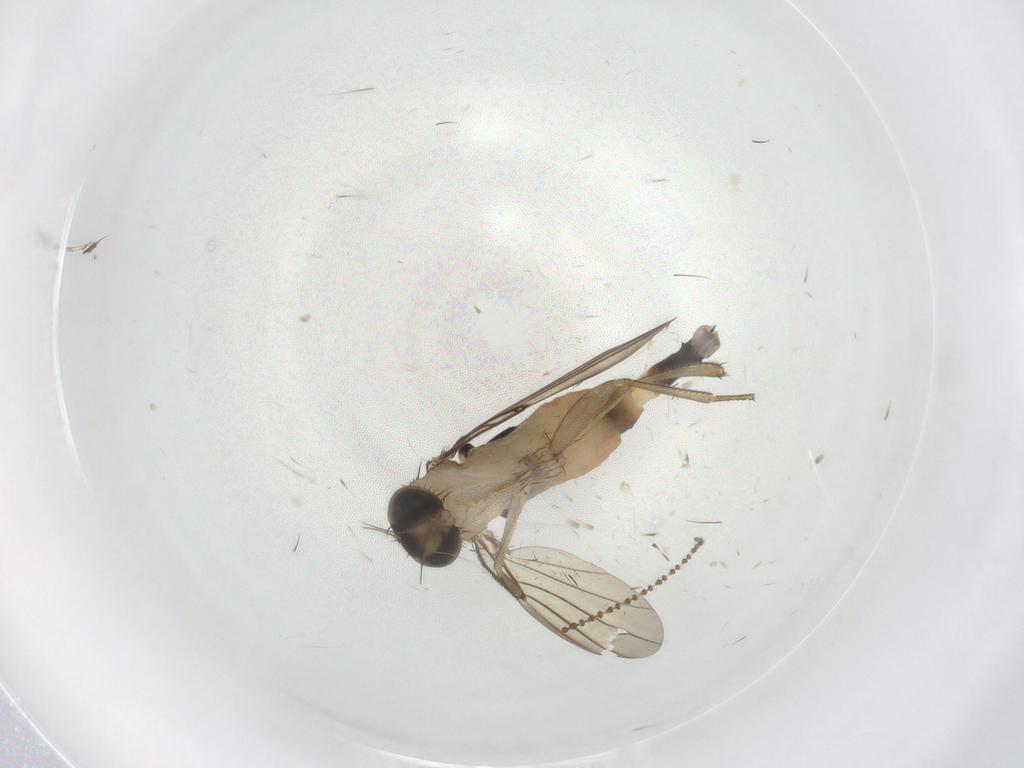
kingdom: Animalia
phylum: Arthropoda
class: Insecta
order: Diptera
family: Phoridae
